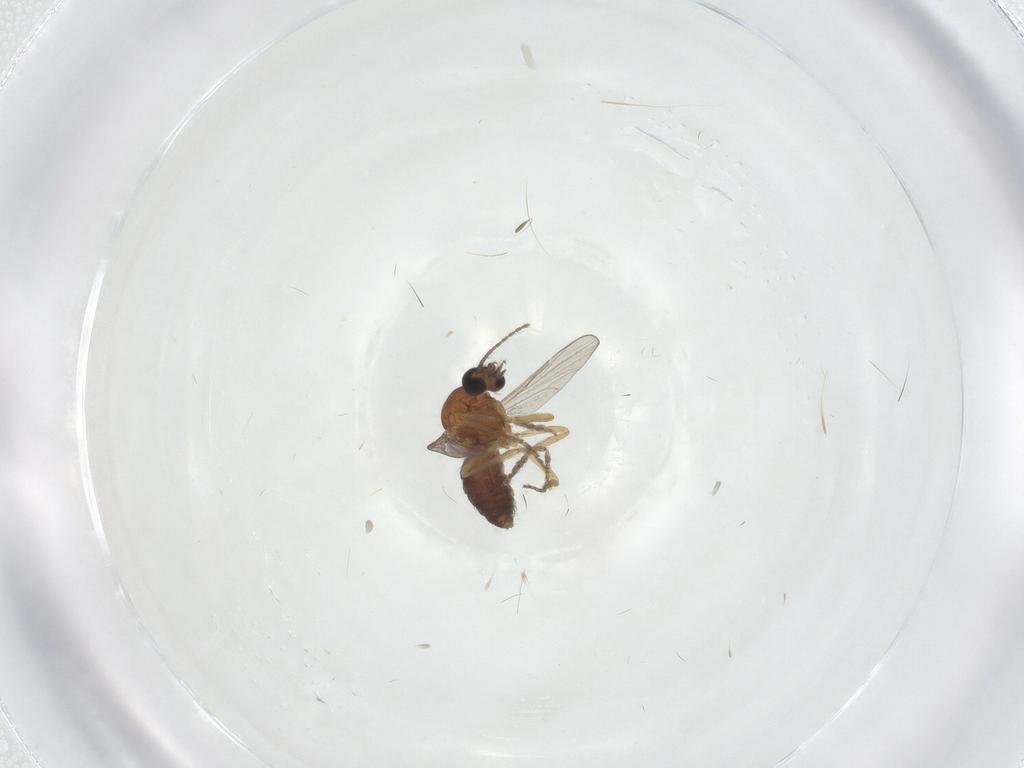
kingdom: Animalia
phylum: Arthropoda
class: Insecta
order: Diptera
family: Ceratopogonidae
